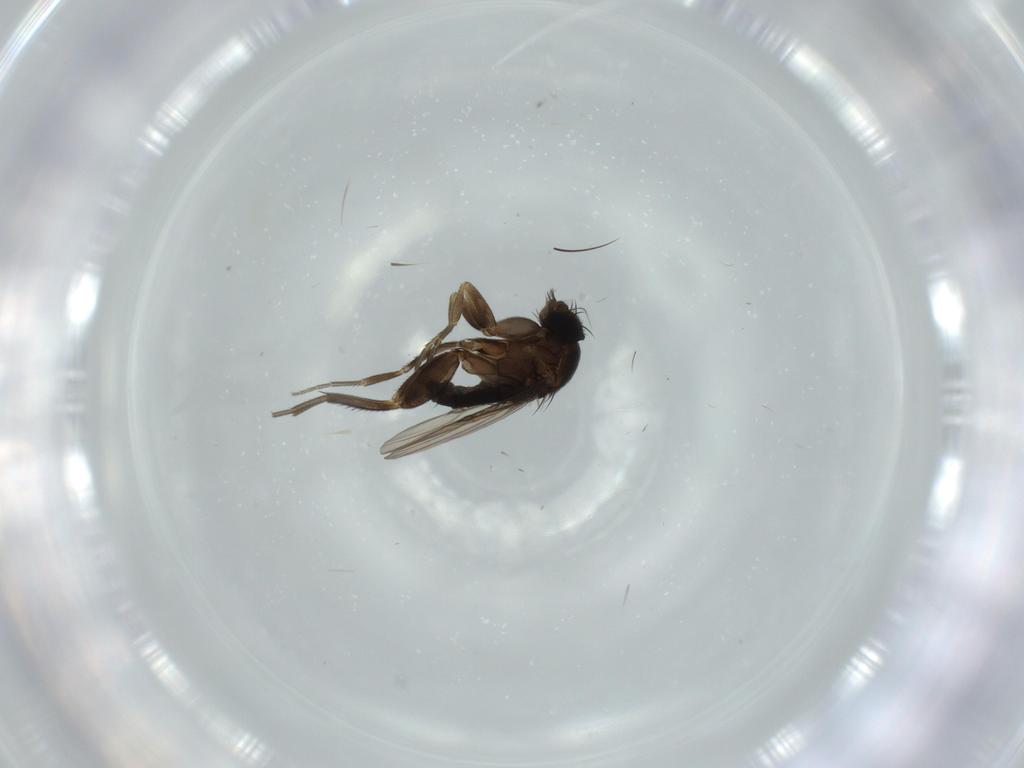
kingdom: Animalia
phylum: Arthropoda
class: Insecta
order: Diptera
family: Phoridae
